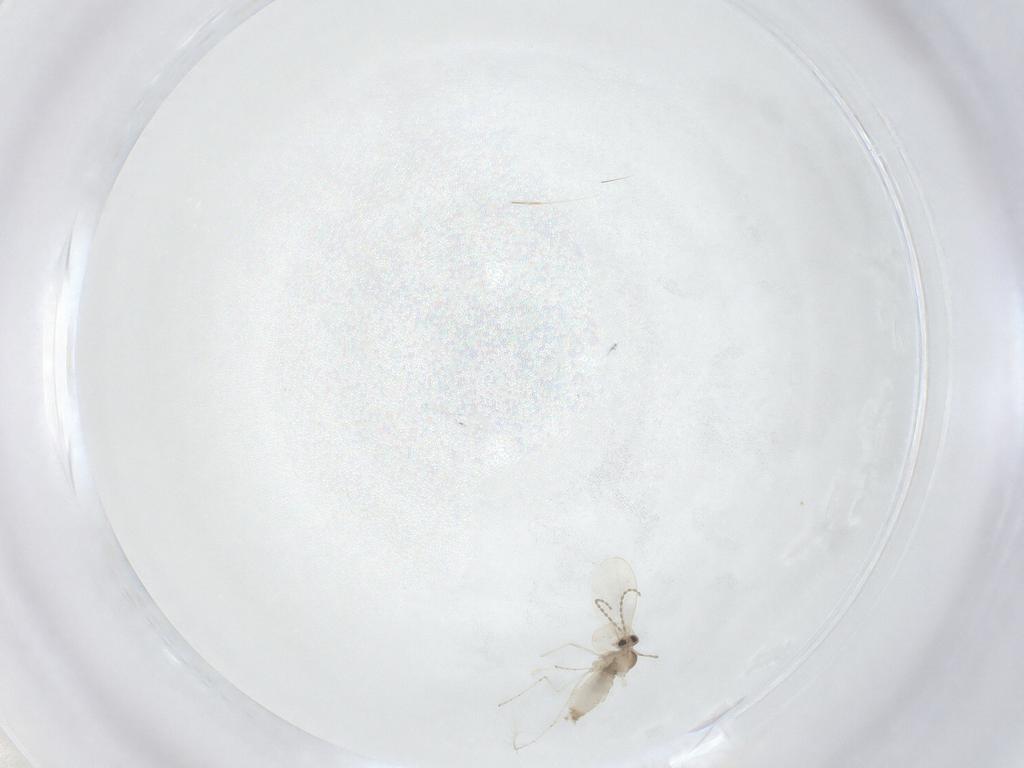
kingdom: Animalia
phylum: Arthropoda
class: Insecta
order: Diptera
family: Cecidomyiidae
